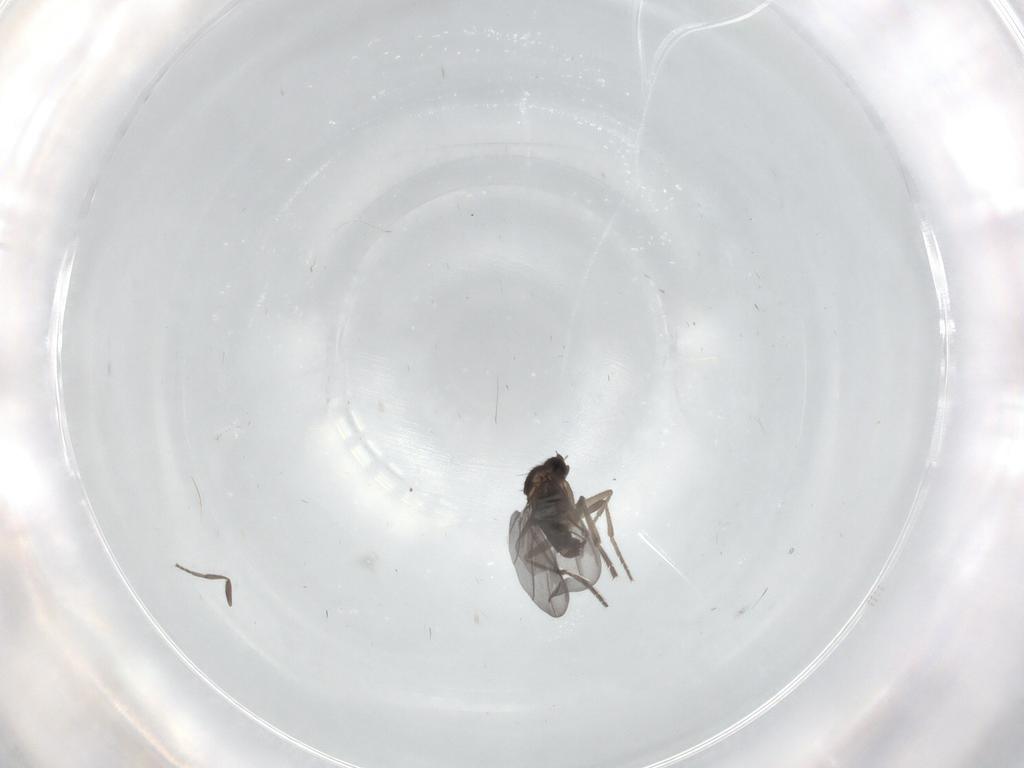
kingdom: Animalia
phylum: Arthropoda
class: Insecta
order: Diptera
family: Phoridae
